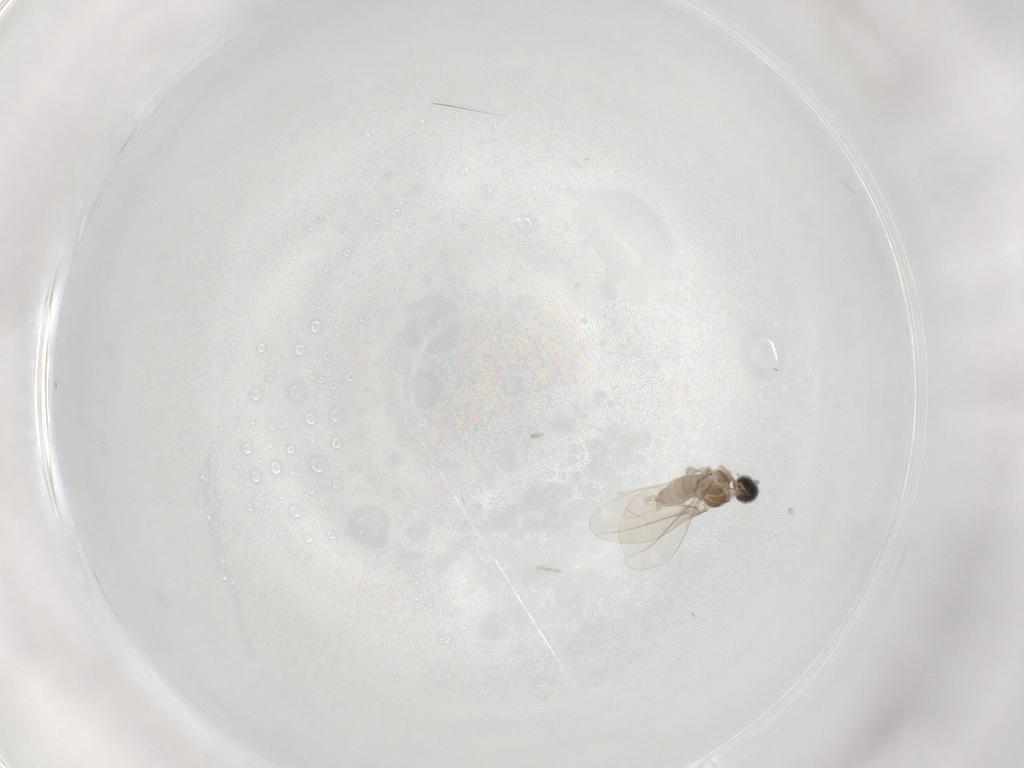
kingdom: Animalia
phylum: Arthropoda
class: Insecta
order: Diptera
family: Cecidomyiidae
